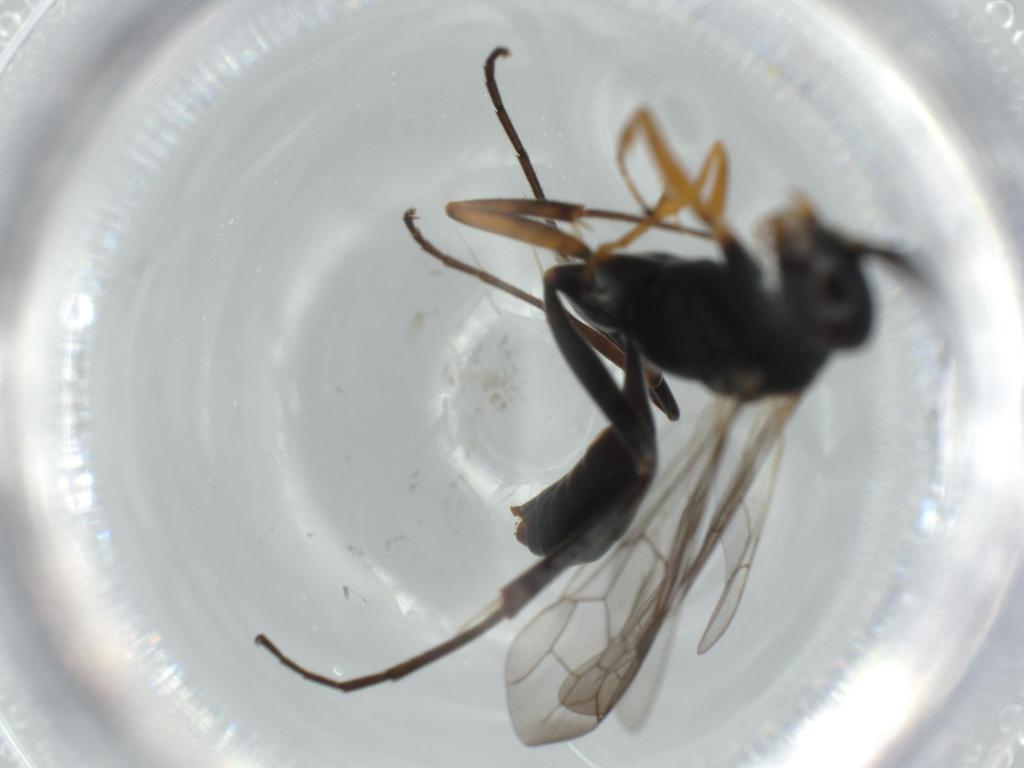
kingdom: Animalia
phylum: Arthropoda
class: Insecta
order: Hymenoptera
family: Pompilidae
